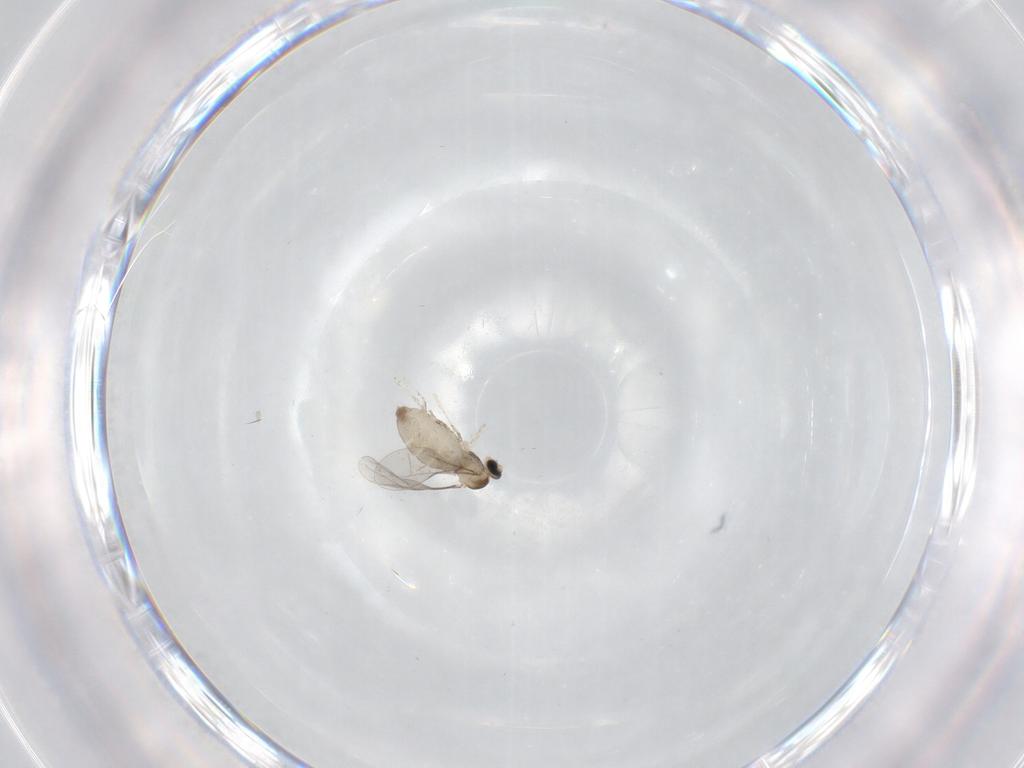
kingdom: Animalia
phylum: Arthropoda
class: Insecta
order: Diptera
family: Cecidomyiidae
